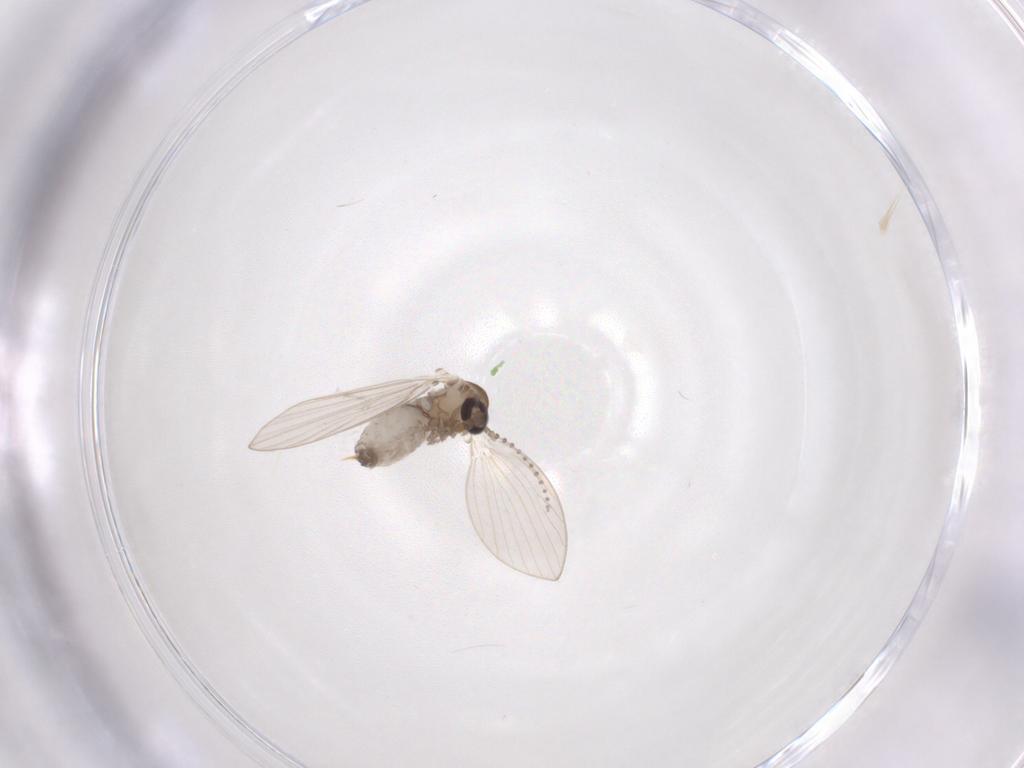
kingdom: Animalia
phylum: Arthropoda
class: Insecta
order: Diptera
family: Psychodidae
